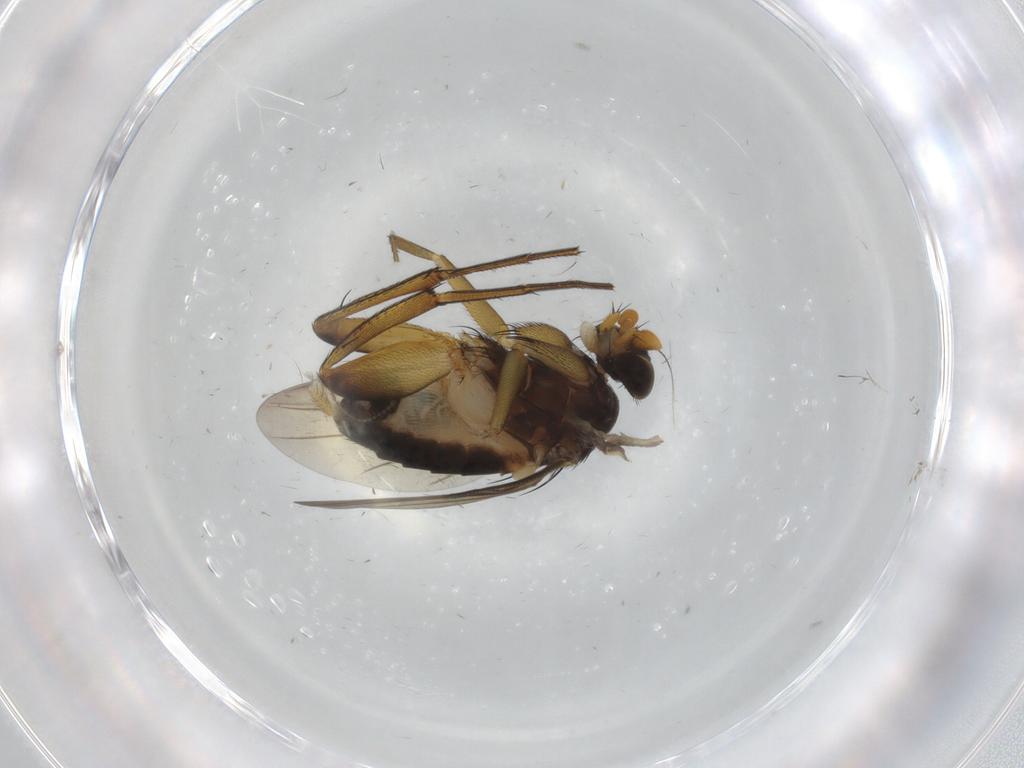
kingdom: Animalia
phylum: Arthropoda
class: Insecta
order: Diptera
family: Phoridae
